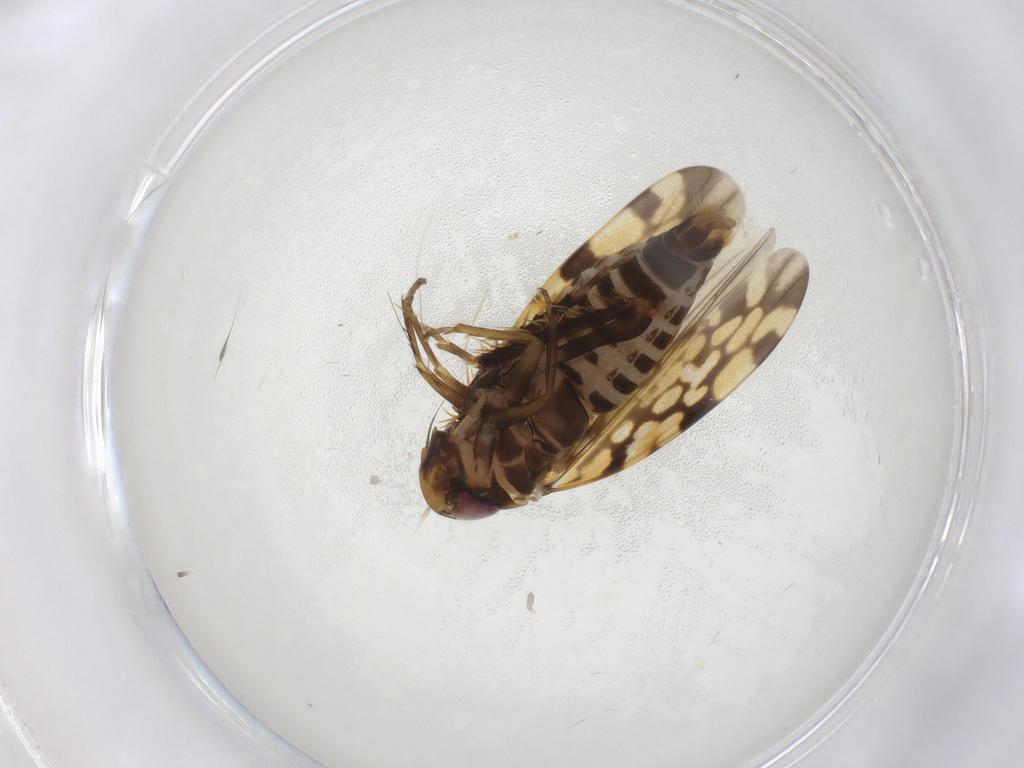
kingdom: Animalia
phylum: Arthropoda
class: Insecta
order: Hemiptera
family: Cicadellidae
